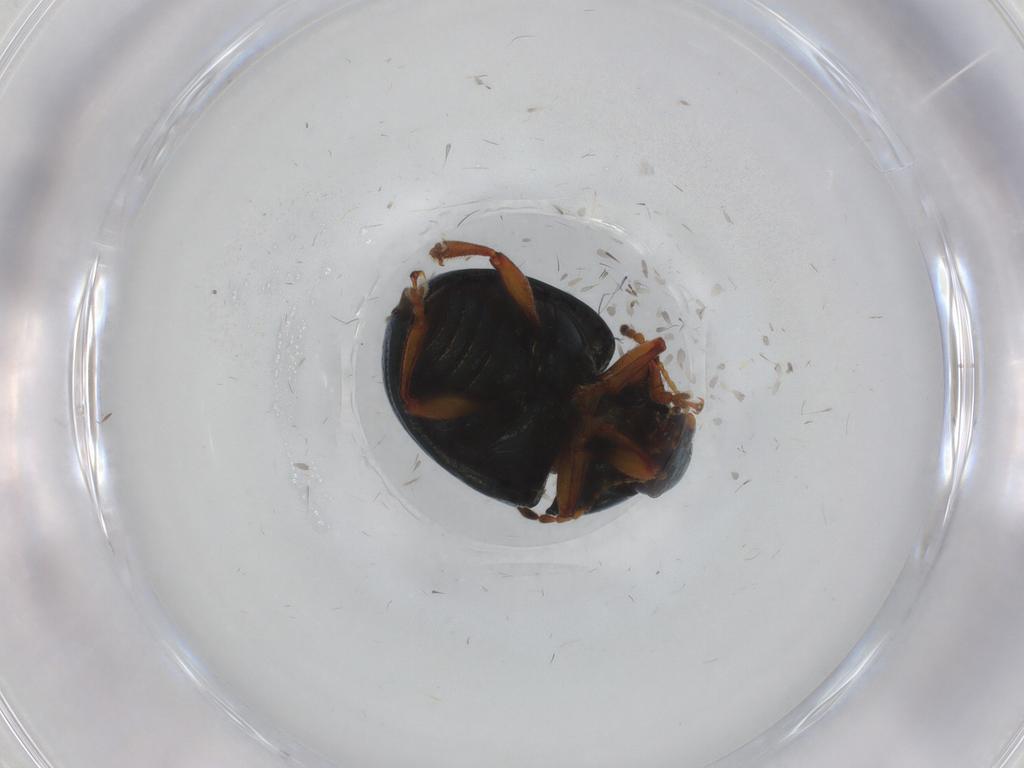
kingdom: Animalia
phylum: Arthropoda
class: Insecta
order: Coleoptera
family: Chrysomelidae
